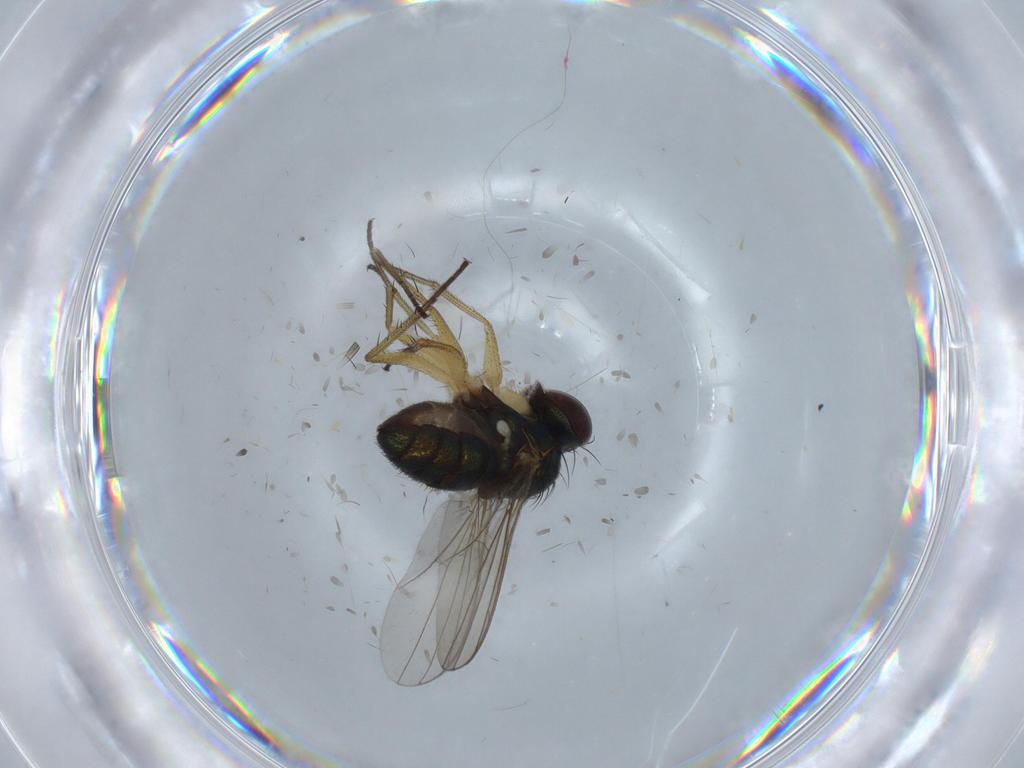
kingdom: Animalia
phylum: Arthropoda
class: Insecta
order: Diptera
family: Chironomidae
